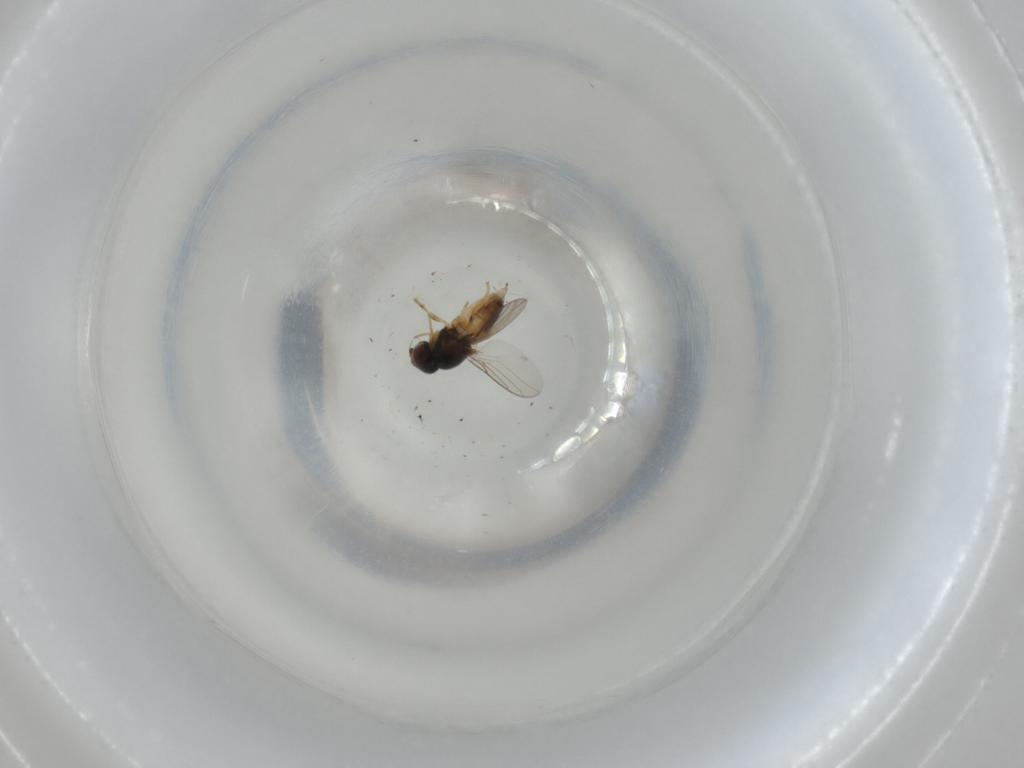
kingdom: Animalia
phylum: Arthropoda
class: Insecta
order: Diptera
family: Chloropidae
